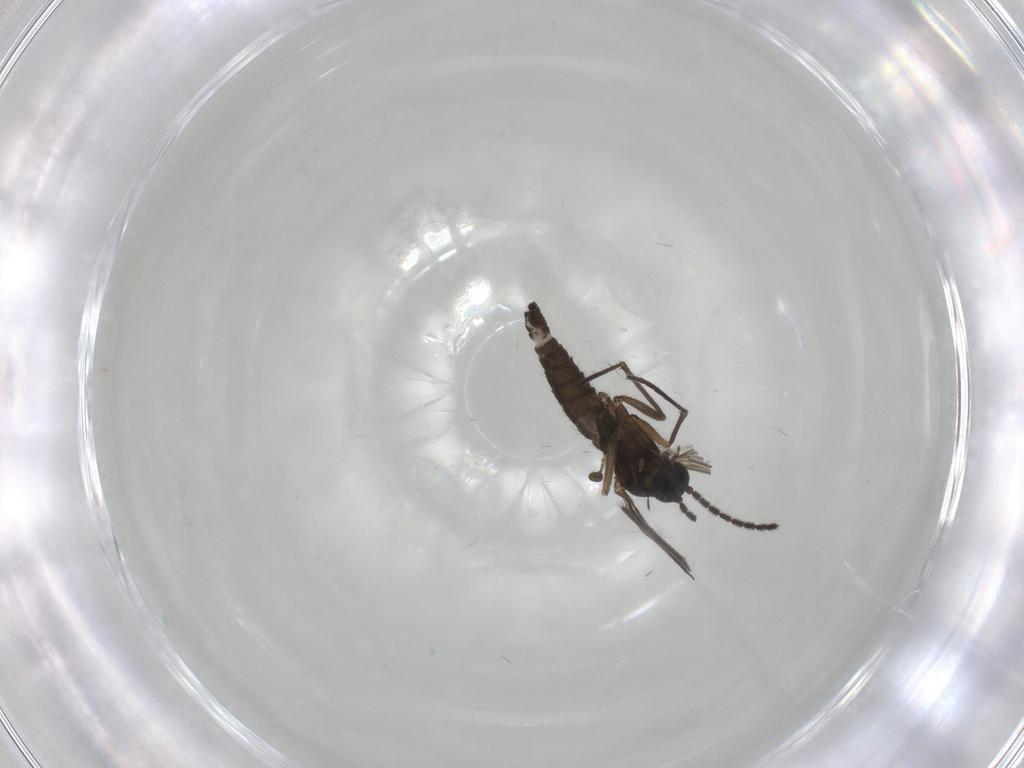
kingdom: Animalia
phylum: Arthropoda
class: Insecta
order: Diptera
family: Sciaridae
